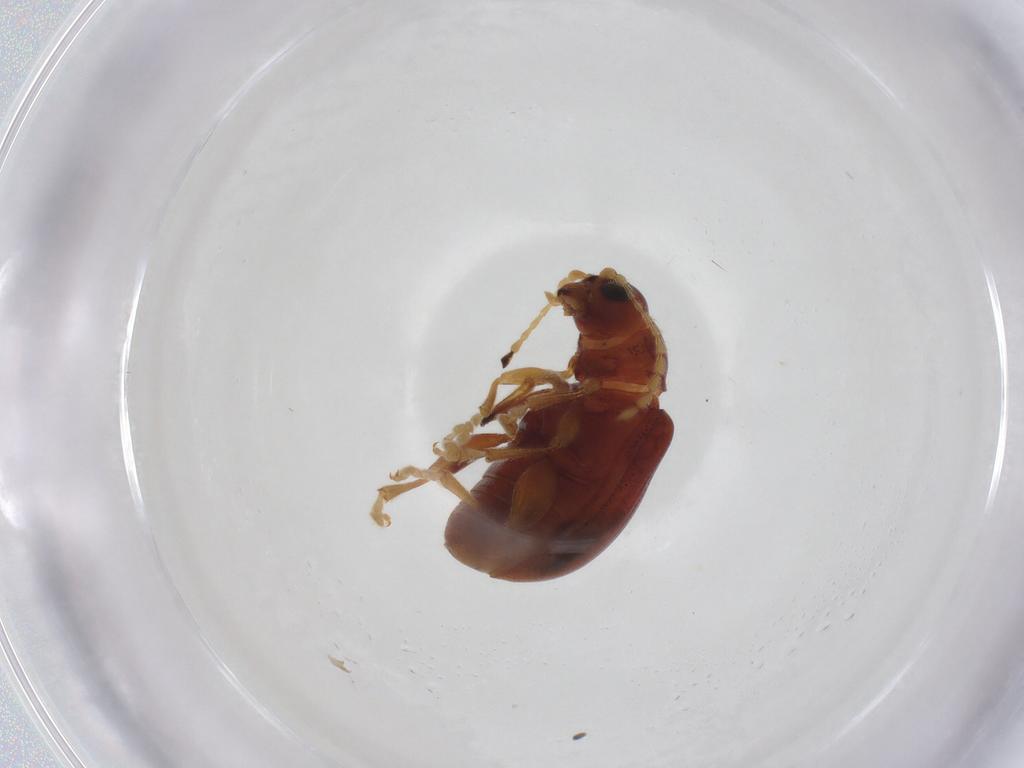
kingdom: Animalia
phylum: Arthropoda
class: Insecta
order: Coleoptera
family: Chrysomelidae
